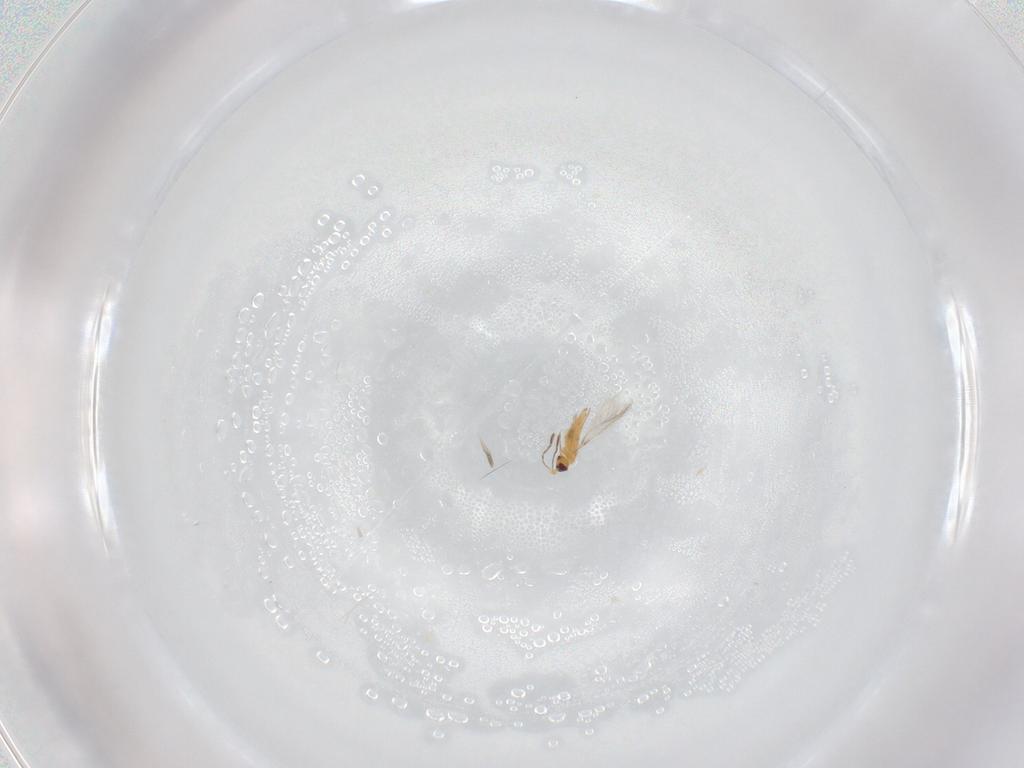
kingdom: Animalia
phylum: Arthropoda
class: Insecta
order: Hymenoptera
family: Mymaridae
